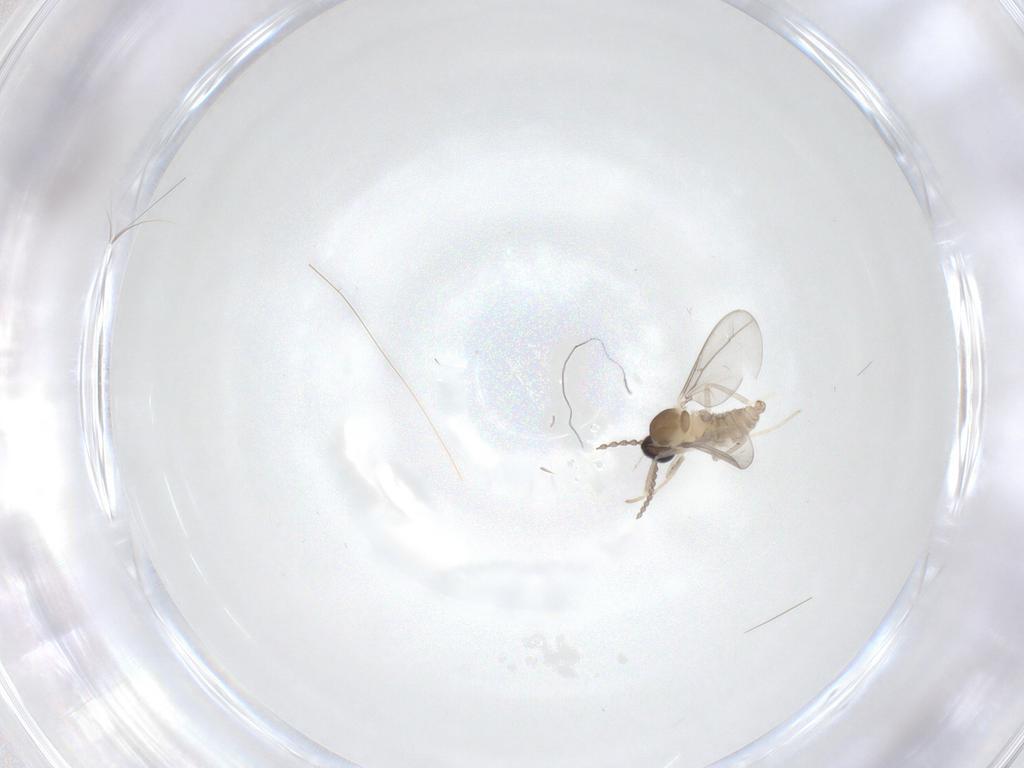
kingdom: Animalia
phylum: Arthropoda
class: Insecta
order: Diptera
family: Cecidomyiidae
